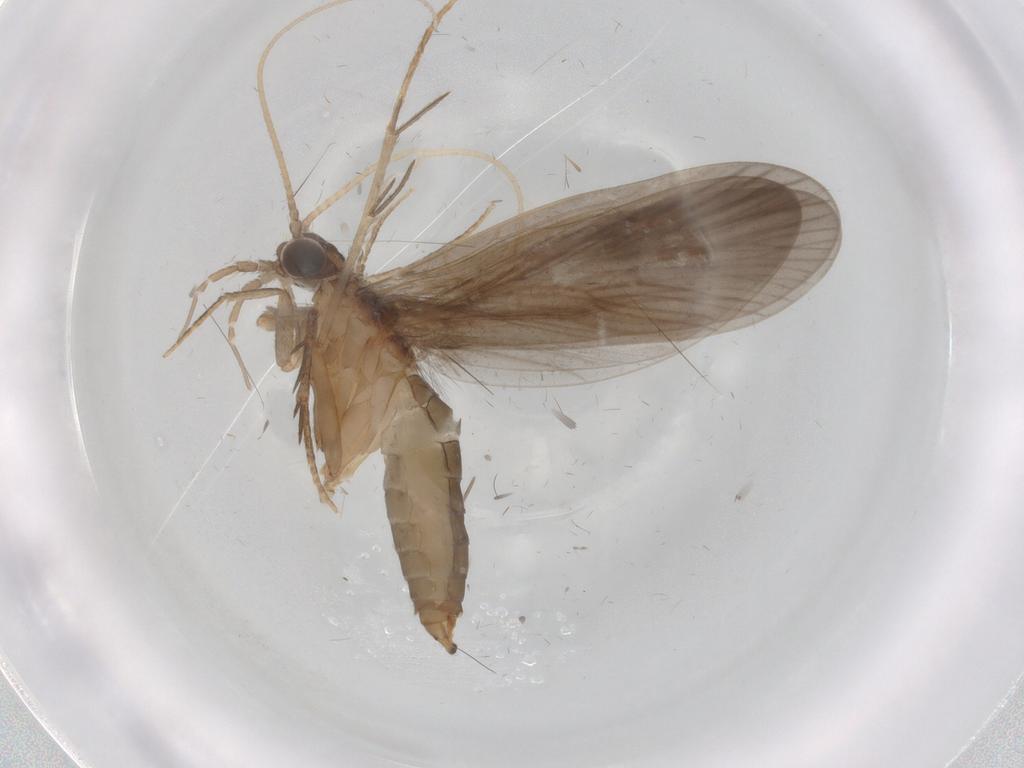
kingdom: Animalia
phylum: Arthropoda
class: Insecta
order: Trichoptera
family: Philopotamidae
